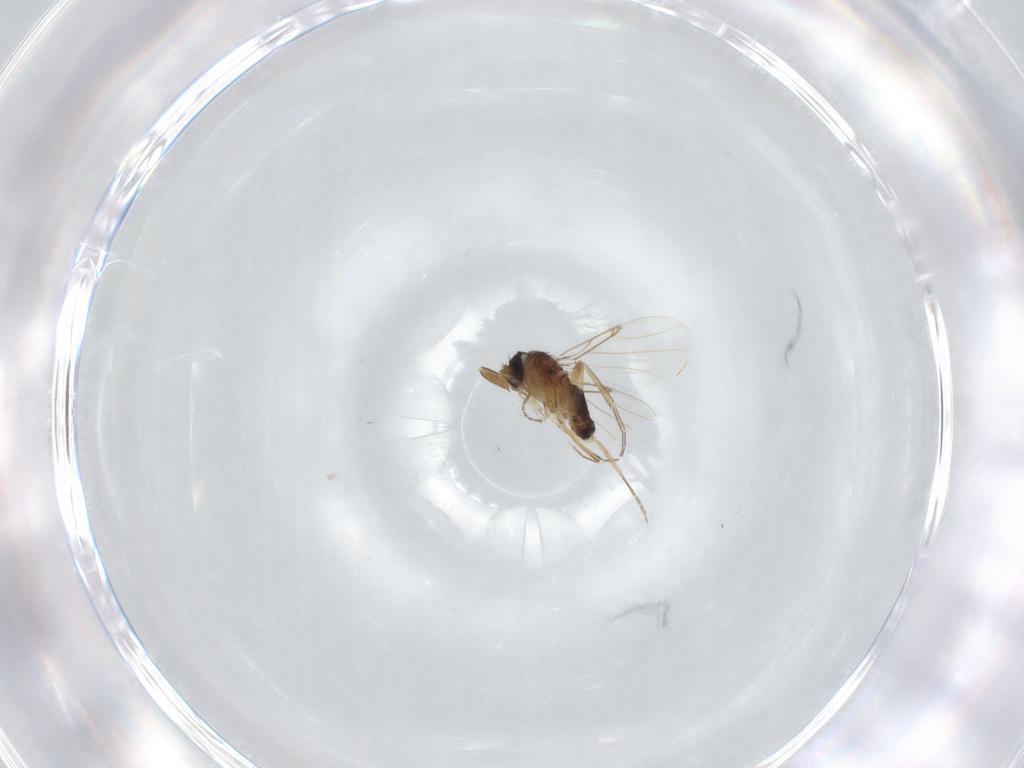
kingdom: Animalia
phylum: Arthropoda
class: Insecta
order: Diptera
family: Phoridae
